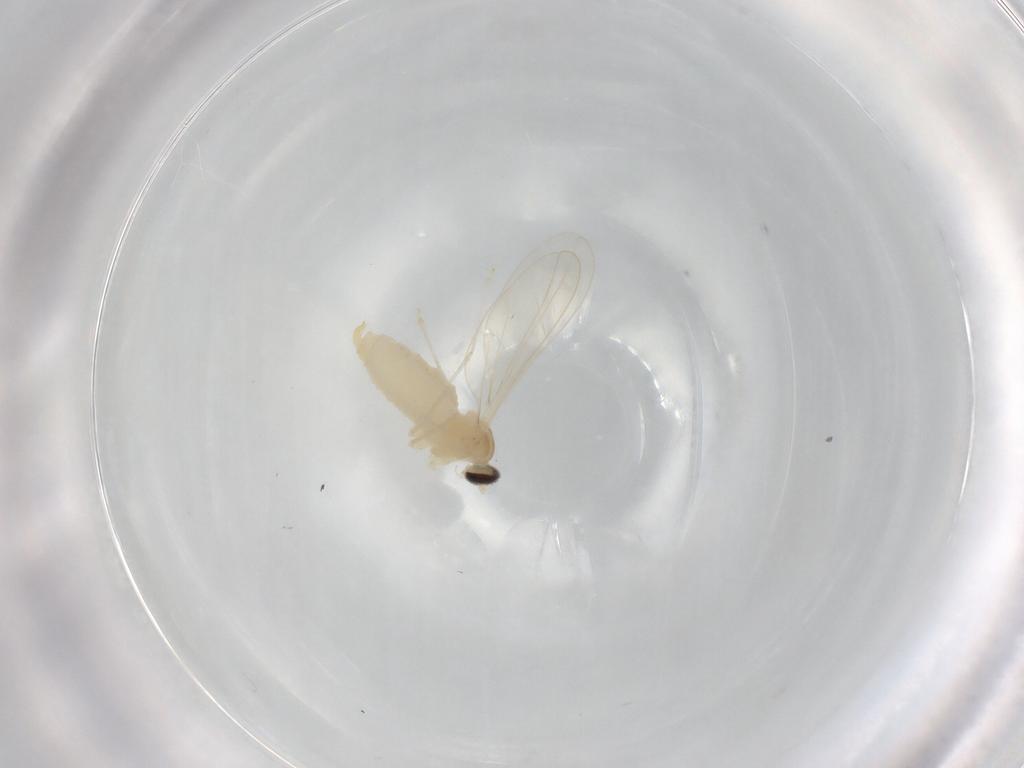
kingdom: Animalia
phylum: Arthropoda
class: Insecta
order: Diptera
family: Cecidomyiidae
